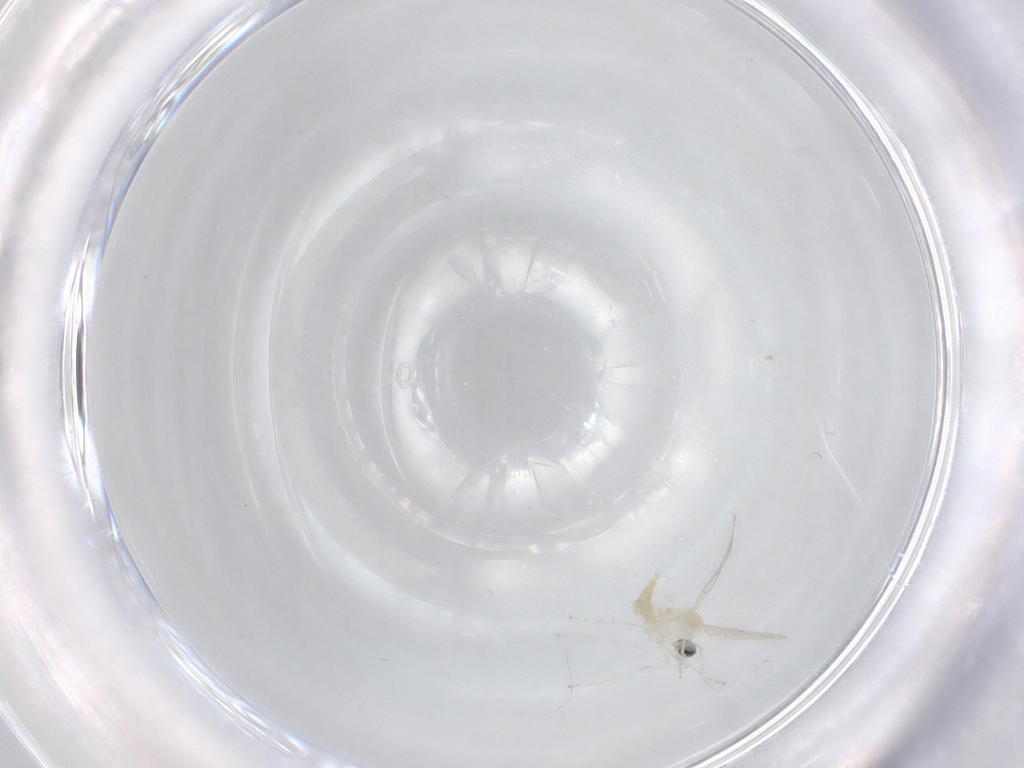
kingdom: Animalia
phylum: Arthropoda
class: Insecta
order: Diptera
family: Cecidomyiidae
